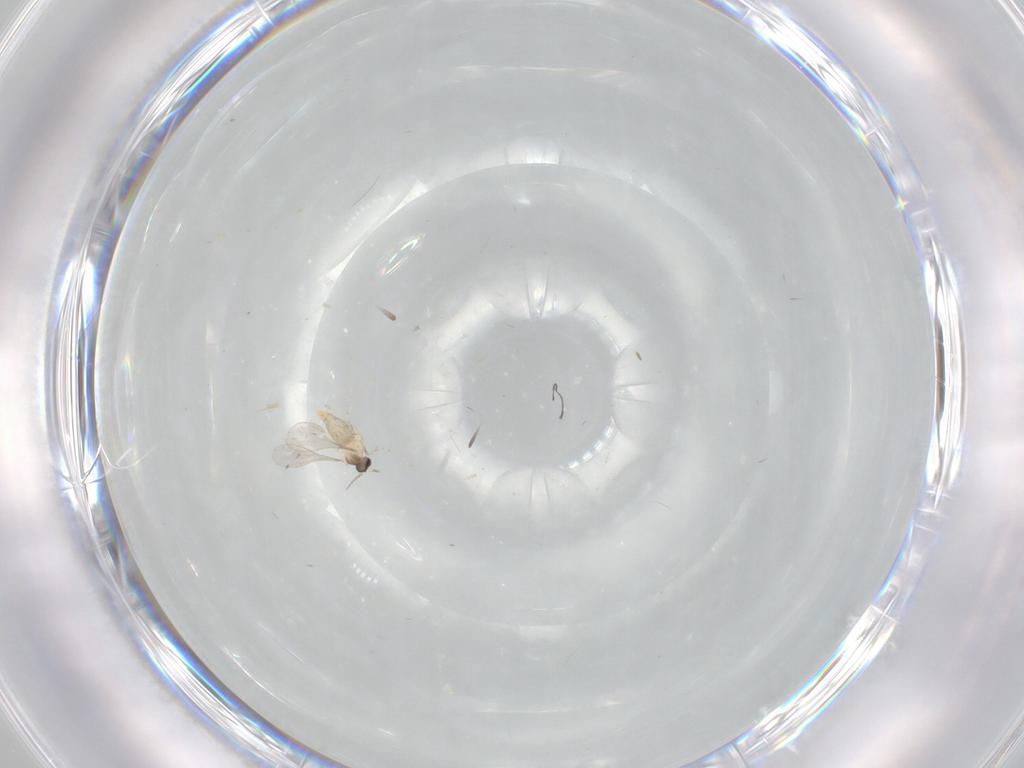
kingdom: Animalia
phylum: Arthropoda
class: Insecta
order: Diptera
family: Cecidomyiidae
